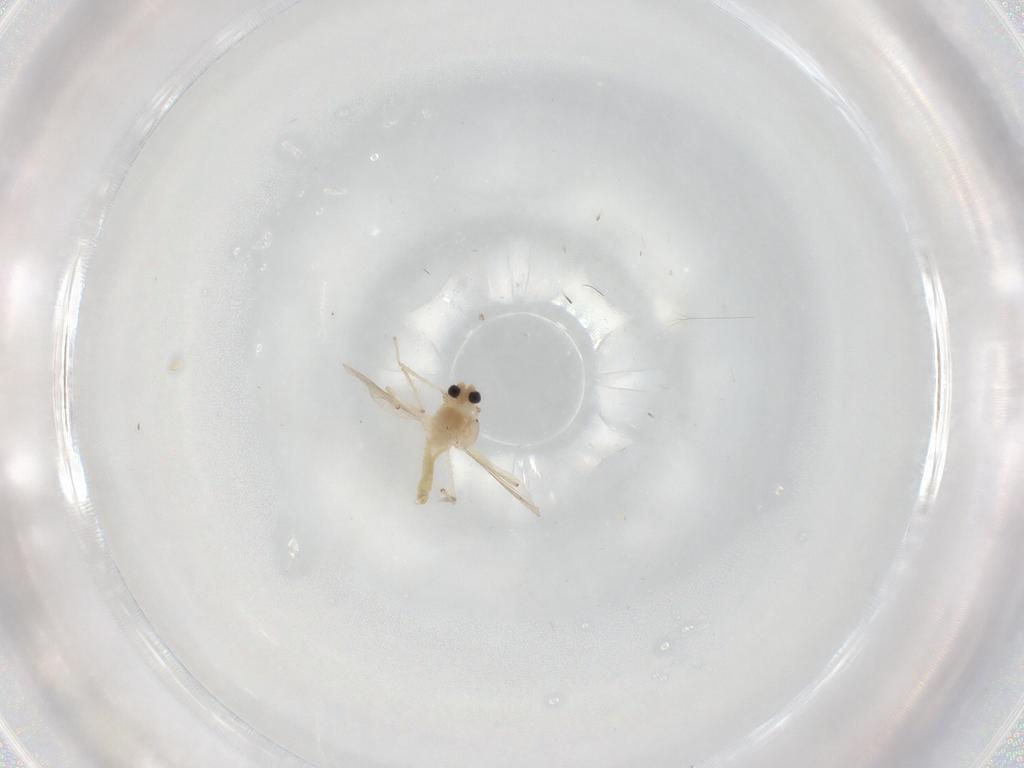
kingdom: Animalia
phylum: Arthropoda
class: Insecta
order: Diptera
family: Chironomidae
